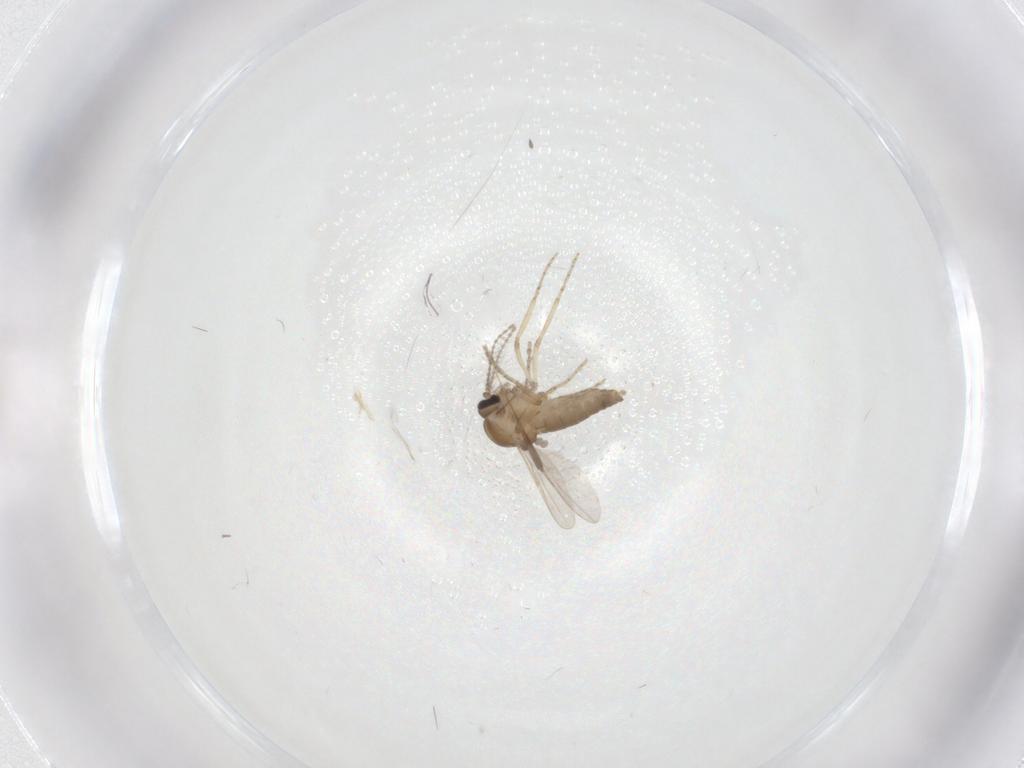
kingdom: Animalia
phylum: Arthropoda
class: Insecta
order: Diptera
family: Ceratopogonidae
